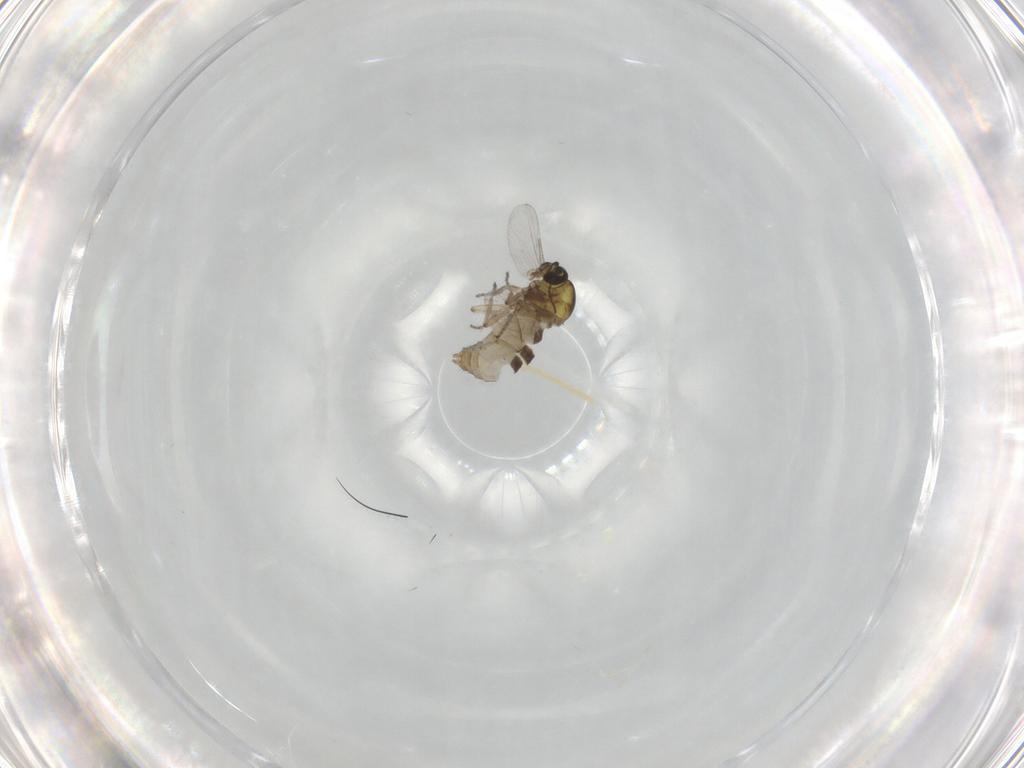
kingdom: Animalia
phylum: Arthropoda
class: Insecta
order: Diptera
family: Ceratopogonidae
